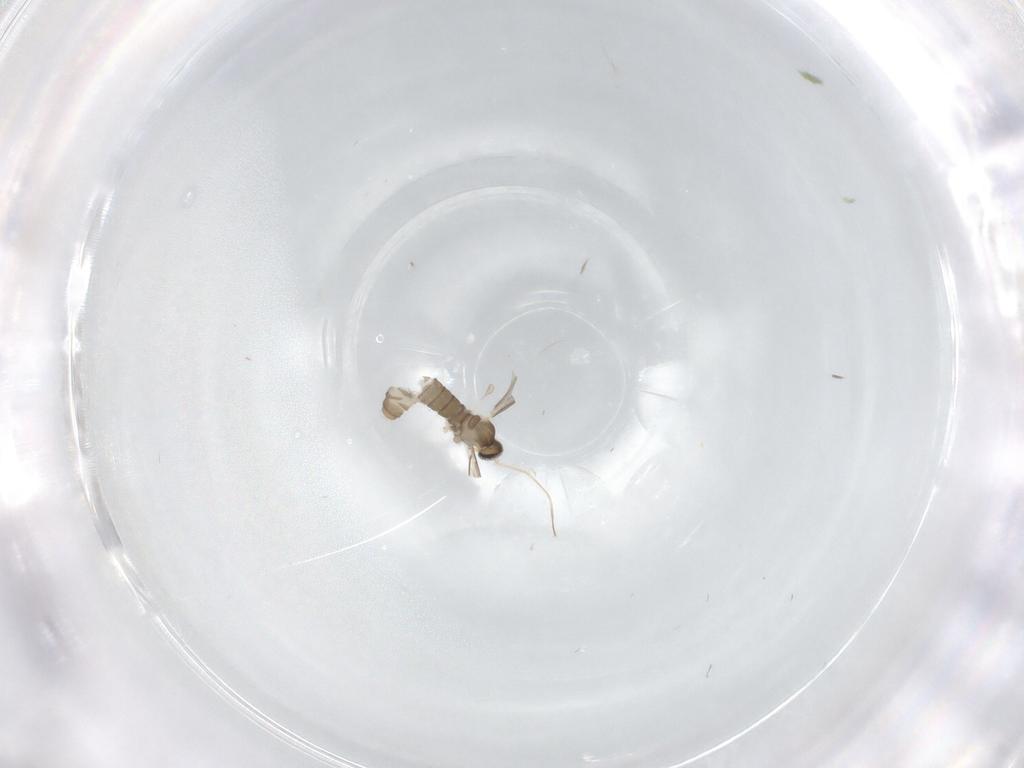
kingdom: Animalia
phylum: Arthropoda
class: Insecta
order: Diptera
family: Cecidomyiidae
